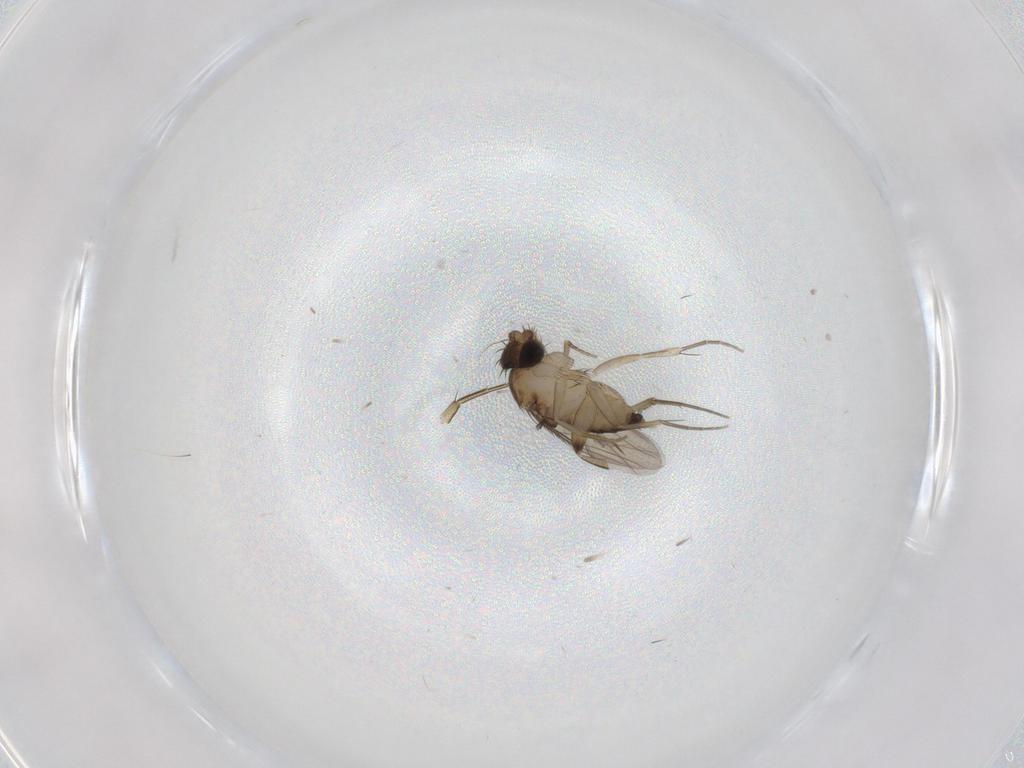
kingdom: Animalia
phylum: Arthropoda
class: Insecta
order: Diptera
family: Phoridae
